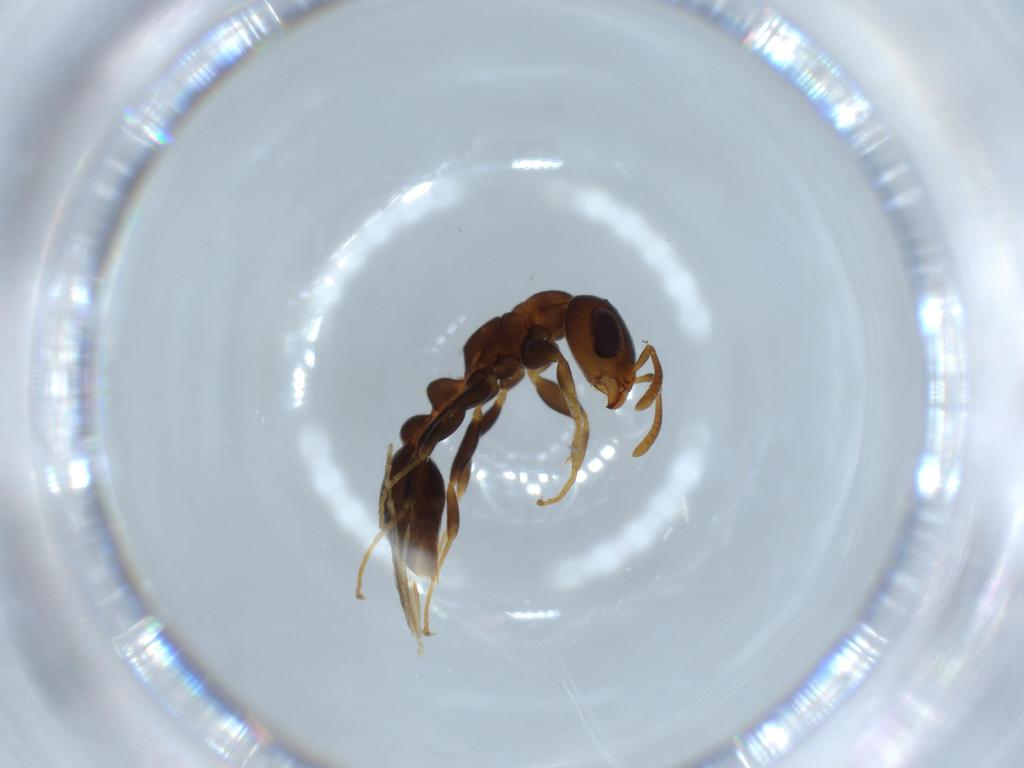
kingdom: Animalia
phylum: Arthropoda
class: Insecta
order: Hymenoptera
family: Formicidae
